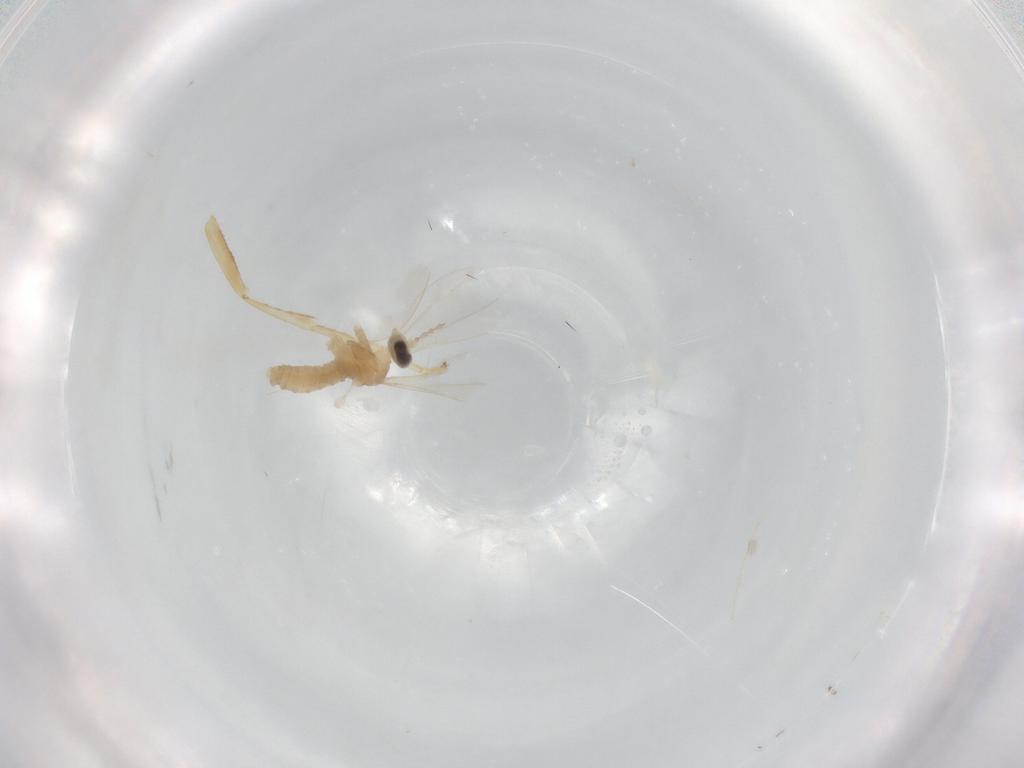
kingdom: Animalia
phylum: Arthropoda
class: Insecta
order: Diptera
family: Cecidomyiidae
